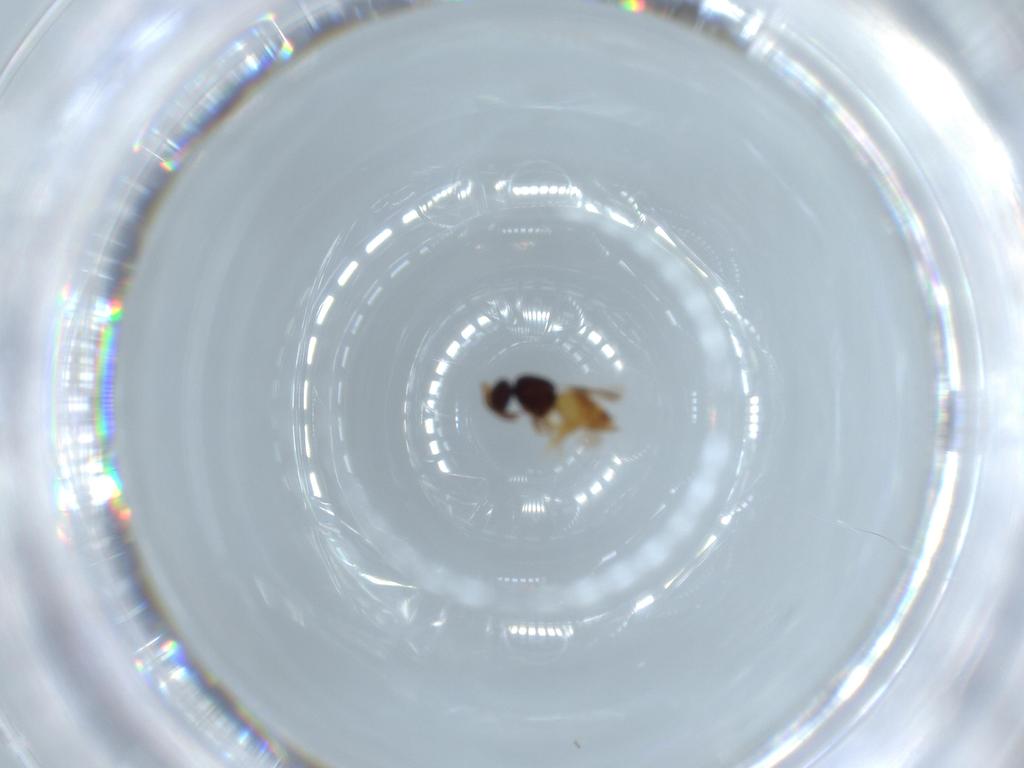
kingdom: Animalia
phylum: Arthropoda
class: Insecta
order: Hymenoptera
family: Ceraphronidae
